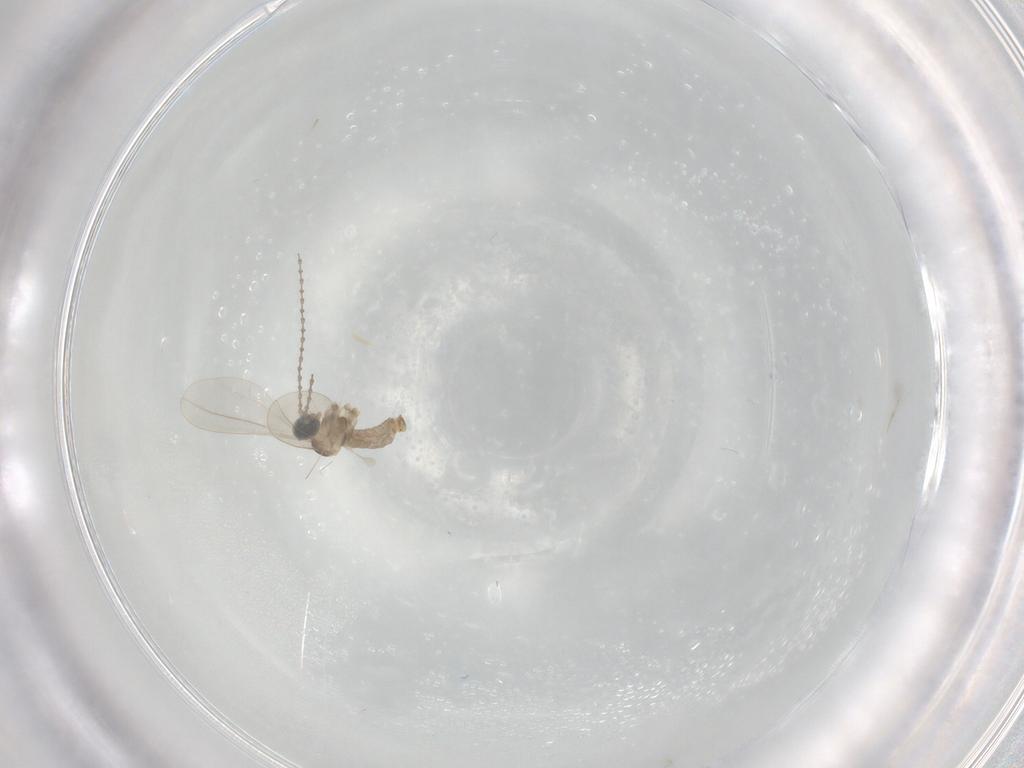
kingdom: Animalia
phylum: Arthropoda
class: Insecta
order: Diptera
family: Cecidomyiidae
